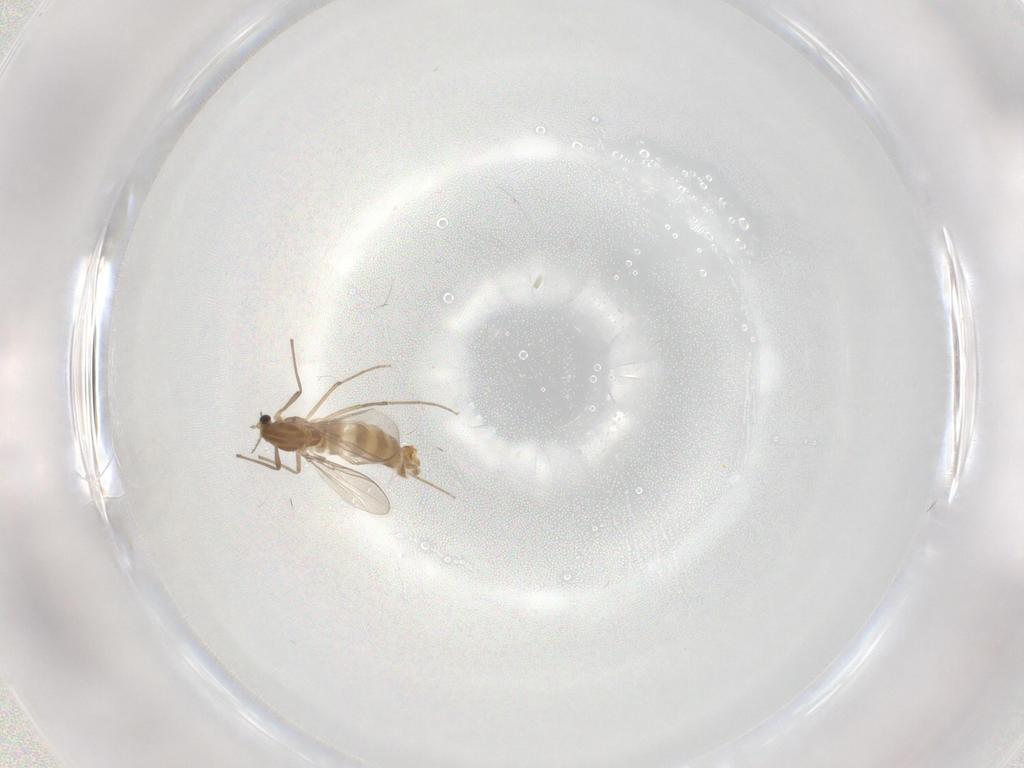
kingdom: Animalia
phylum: Arthropoda
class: Insecta
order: Diptera
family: Chironomidae
